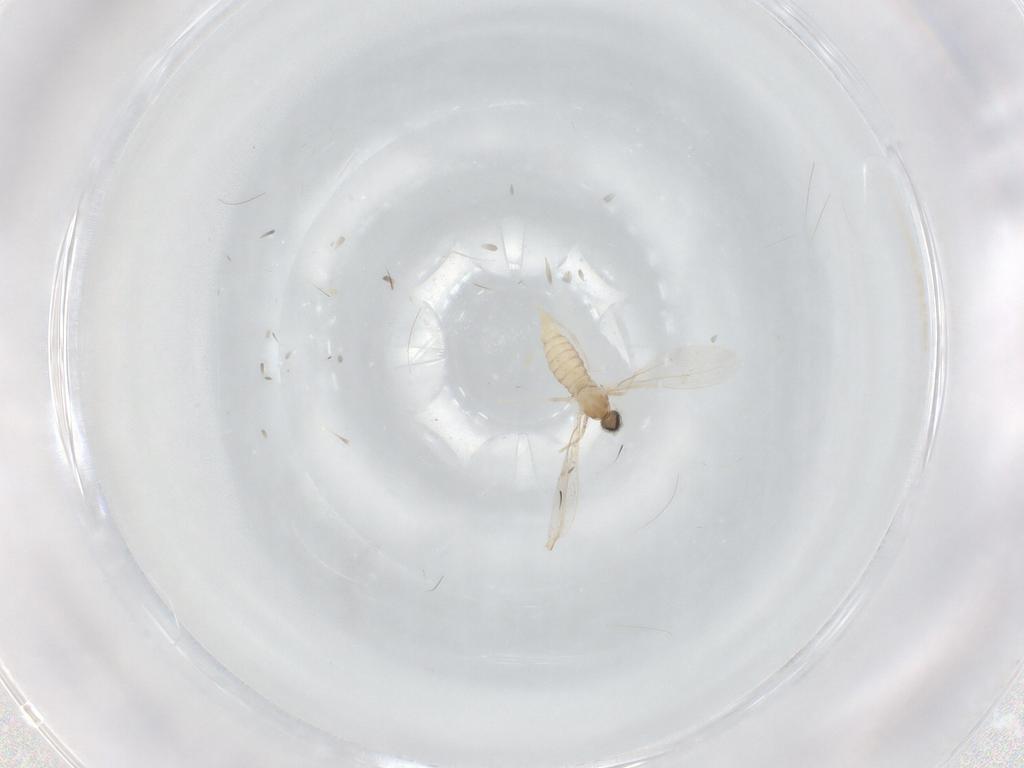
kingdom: Animalia
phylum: Arthropoda
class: Insecta
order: Diptera
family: Cecidomyiidae
